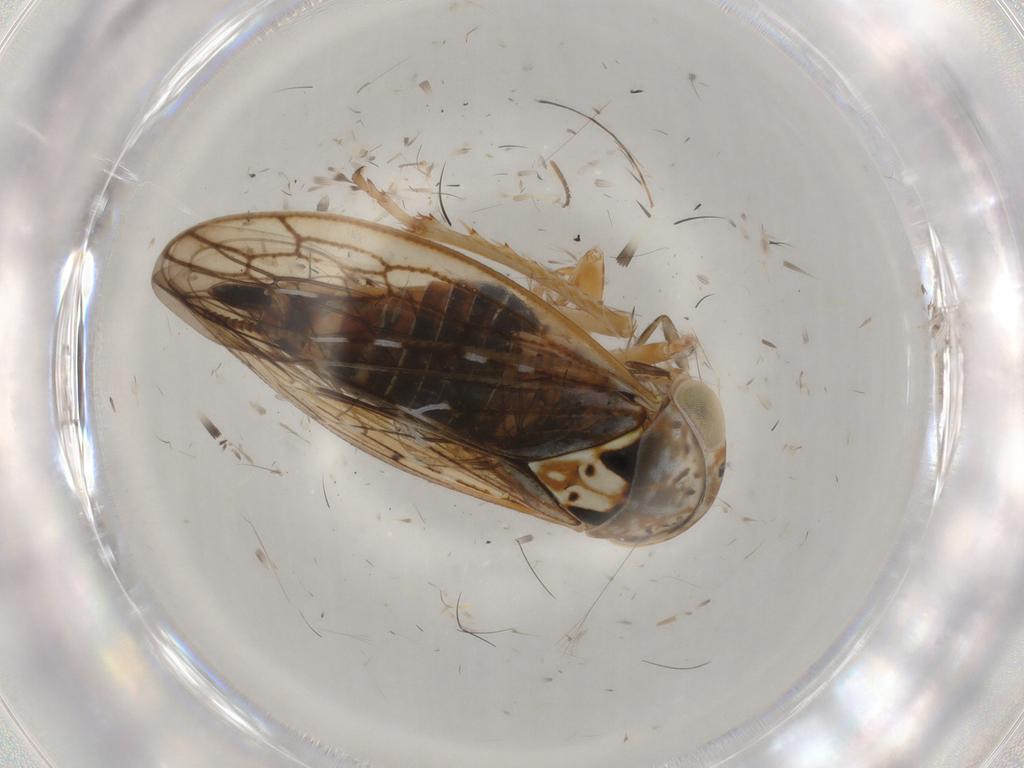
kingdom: Animalia
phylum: Arthropoda
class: Insecta
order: Hemiptera
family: Cicadellidae
